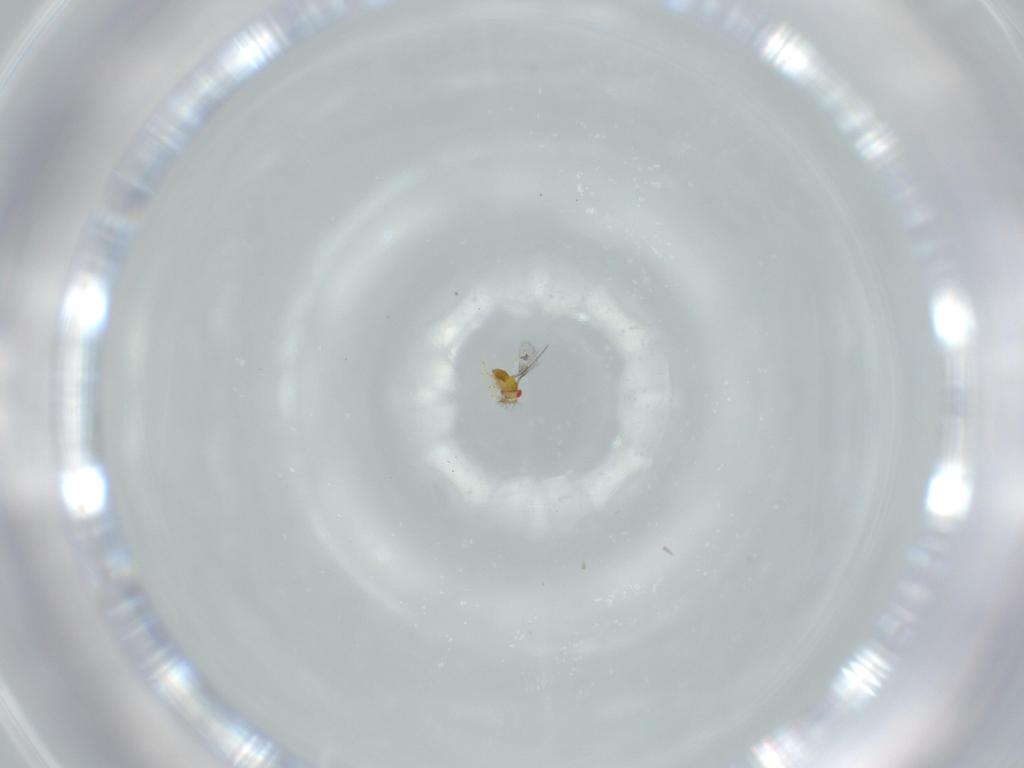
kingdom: Animalia
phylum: Arthropoda
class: Insecta
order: Hymenoptera
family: Trichogrammatidae
